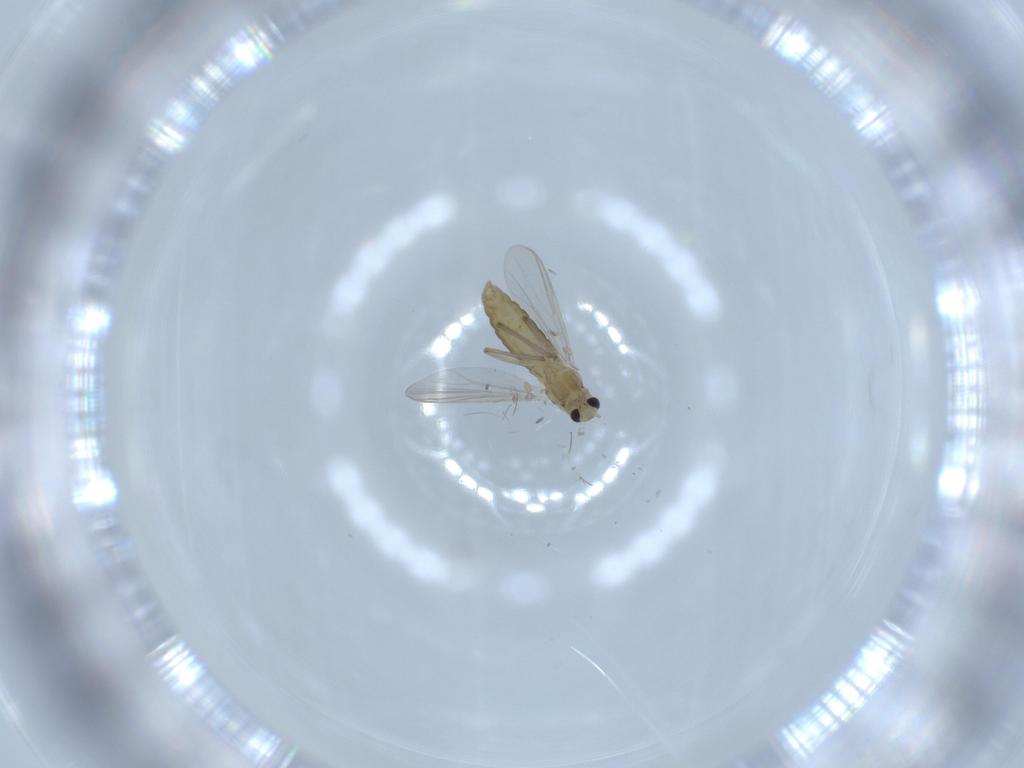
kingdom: Animalia
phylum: Arthropoda
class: Insecta
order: Diptera
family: Chironomidae
